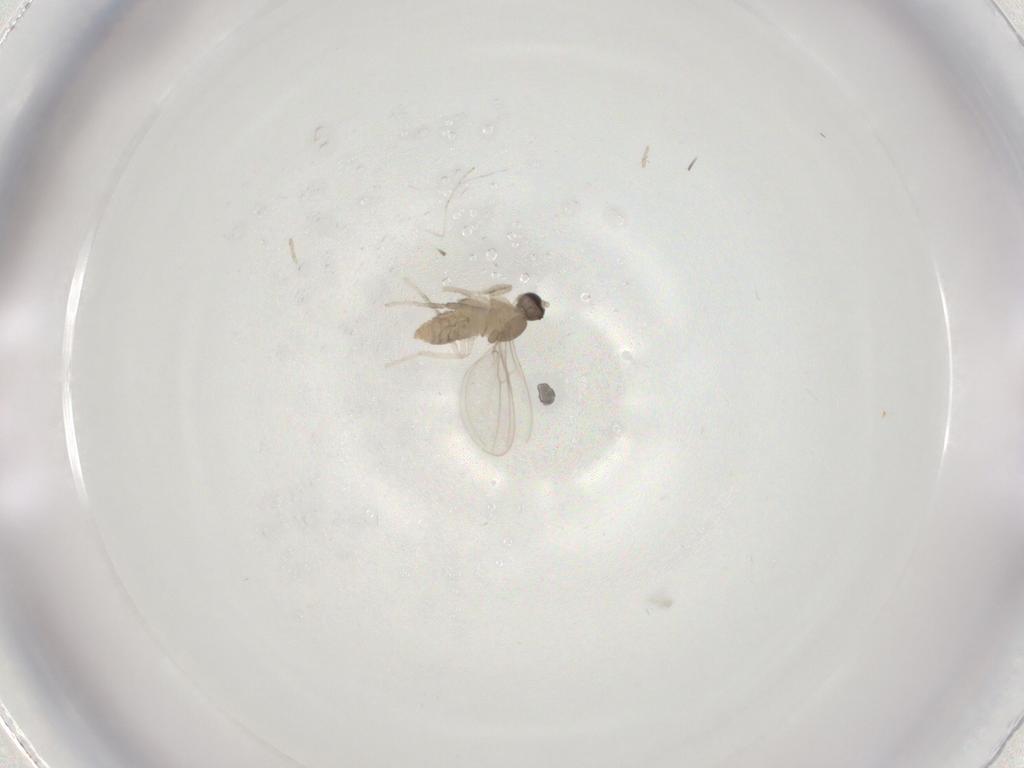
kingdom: Animalia
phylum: Arthropoda
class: Insecta
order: Diptera
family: Cecidomyiidae
